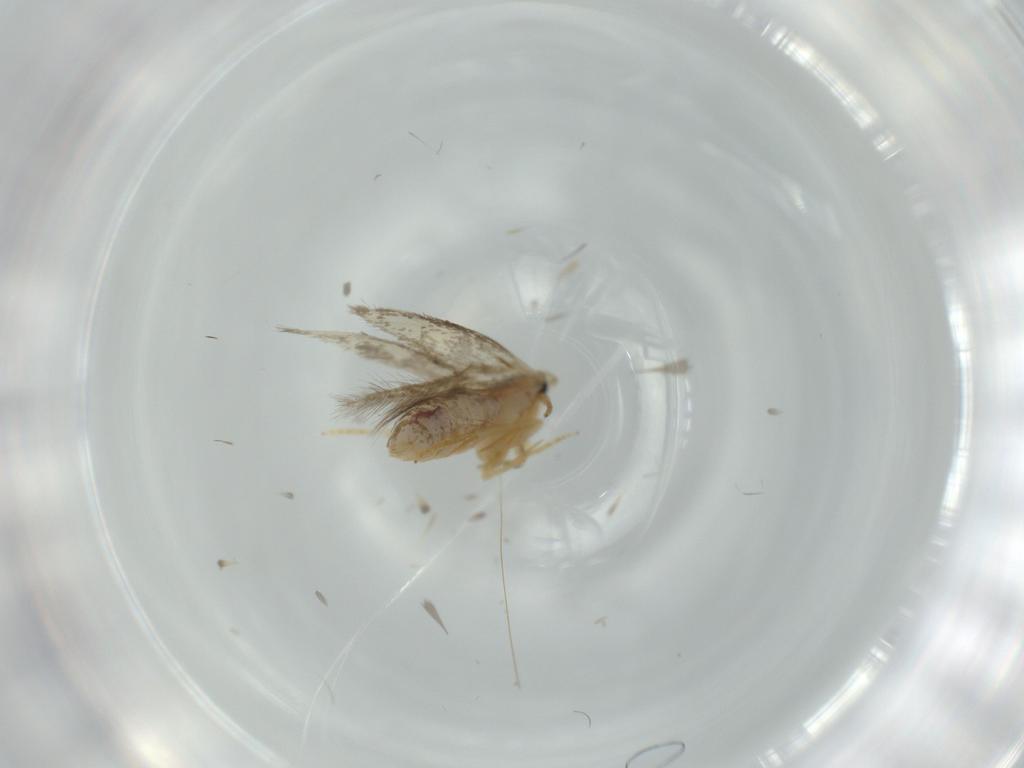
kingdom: Animalia
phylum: Arthropoda
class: Insecta
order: Lepidoptera
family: Nepticulidae
